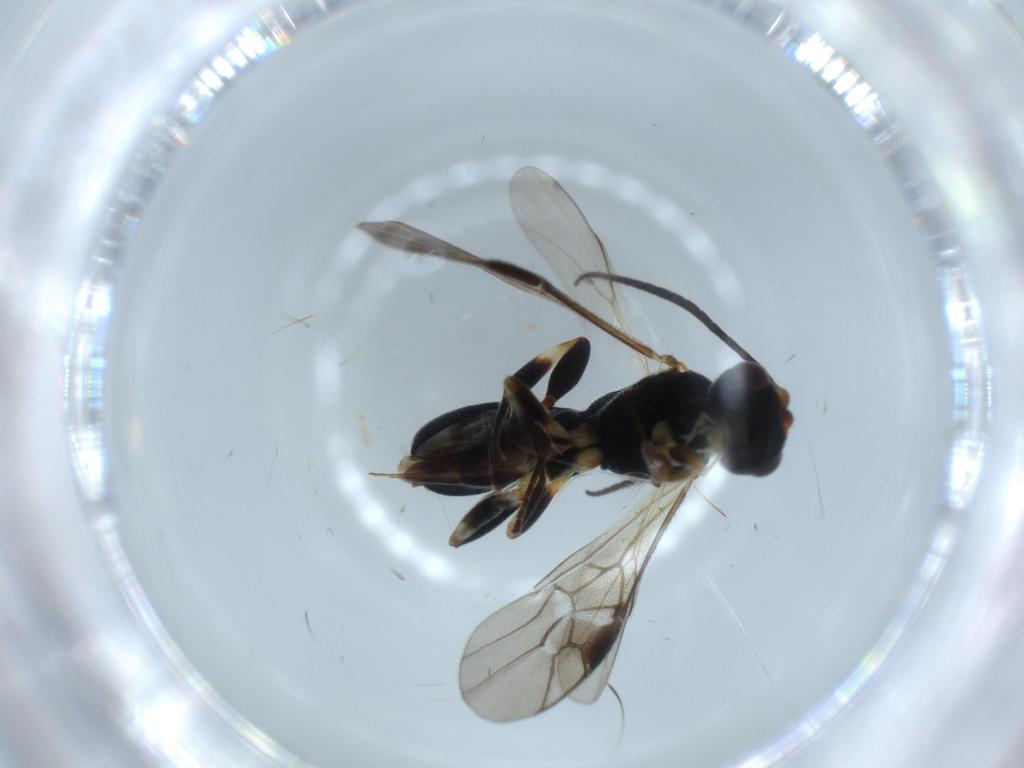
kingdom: Animalia
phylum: Arthropoda
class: Insecta
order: Hymenoptera
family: Braconidae
